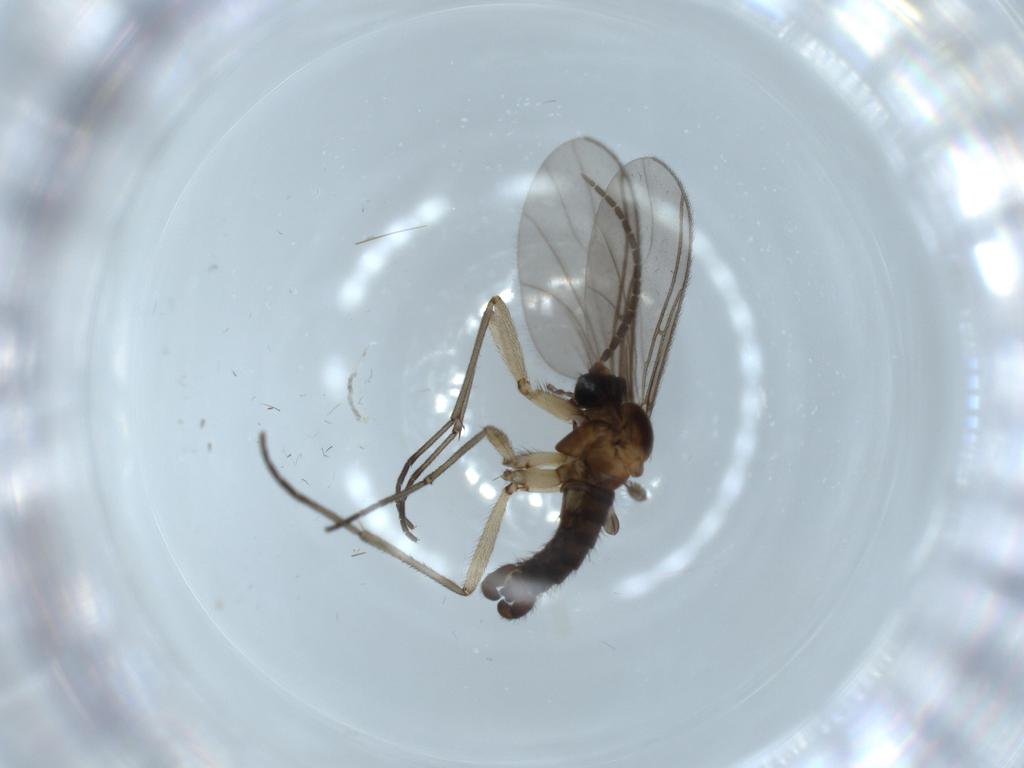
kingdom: Animalia
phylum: Arthropoda
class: Insecta
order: Diptera
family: Sciaridae
